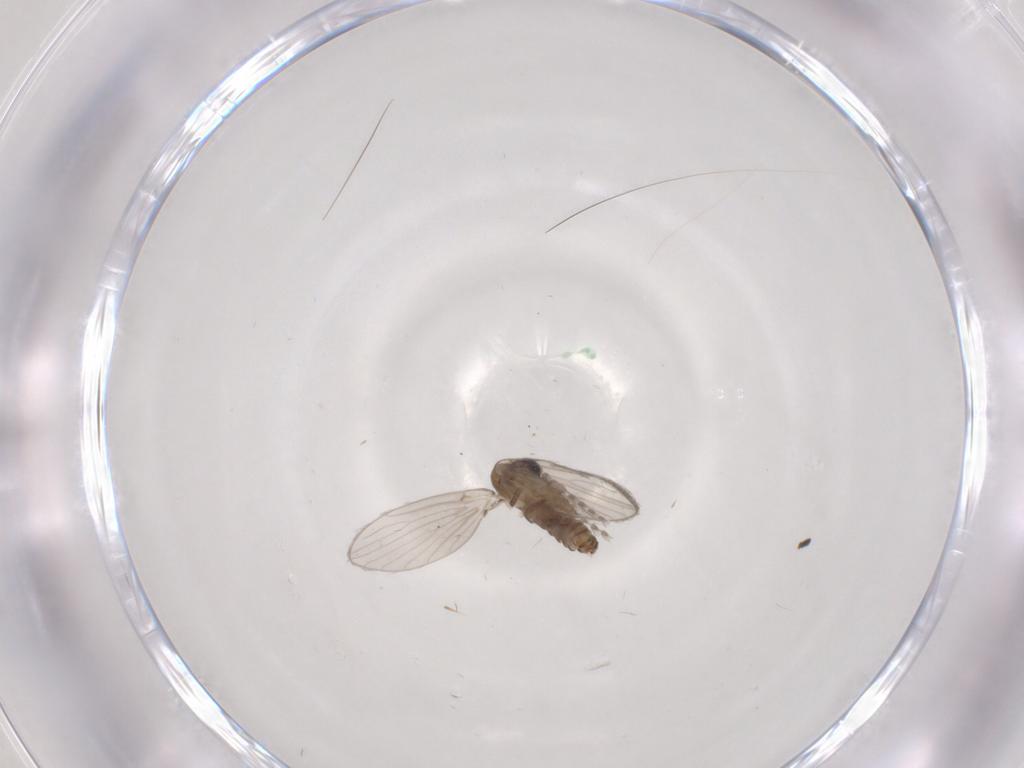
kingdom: Animalia
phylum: Arthropoda
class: Insecta
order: Diptera
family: Psychodidae
